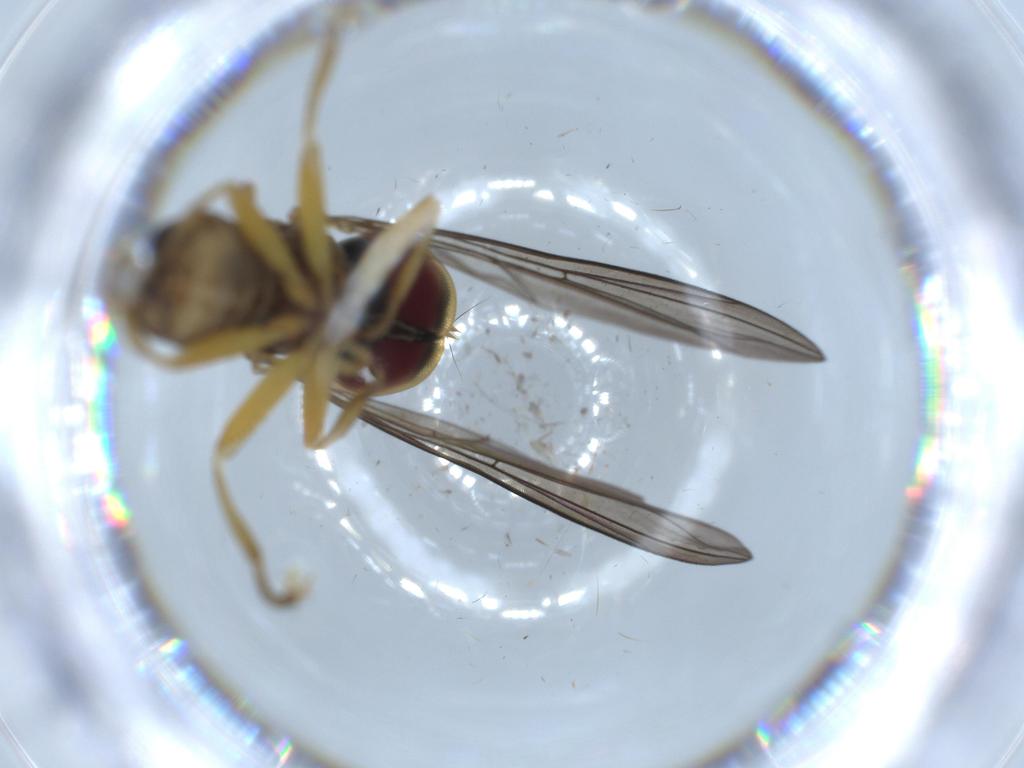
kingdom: Animalia
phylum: Arthropoda
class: Insecta
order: Diptera
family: Pipunculidae
